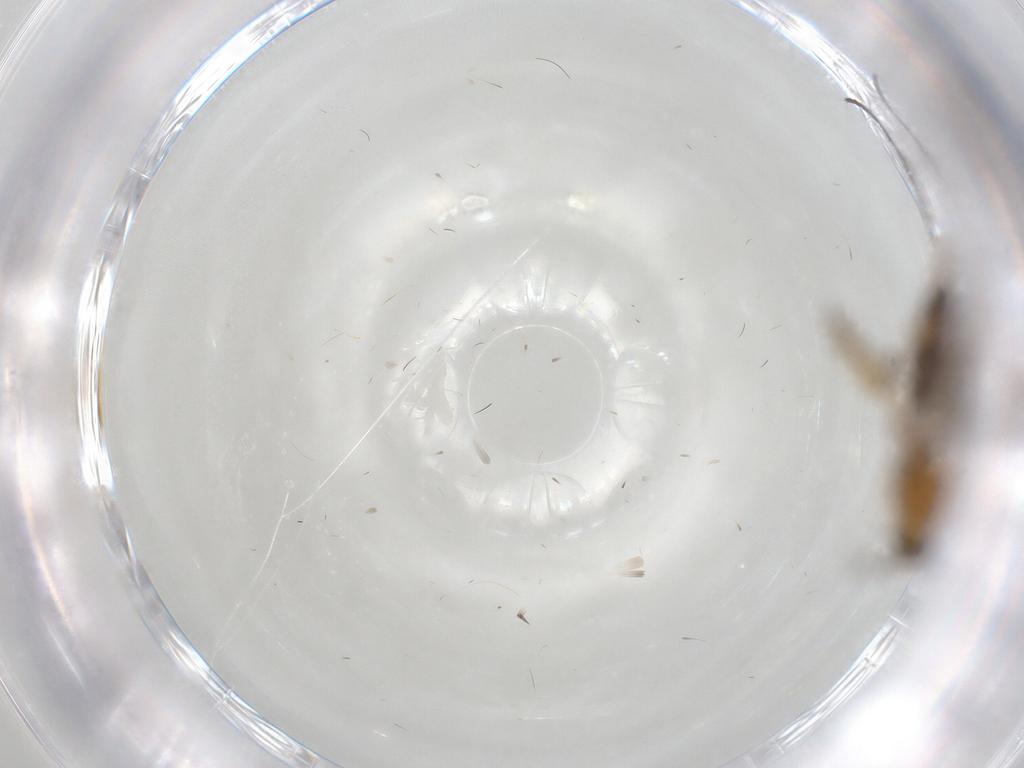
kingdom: Animalia
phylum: Arthropoda
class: Insecta
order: Diptera
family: Sciaridae
